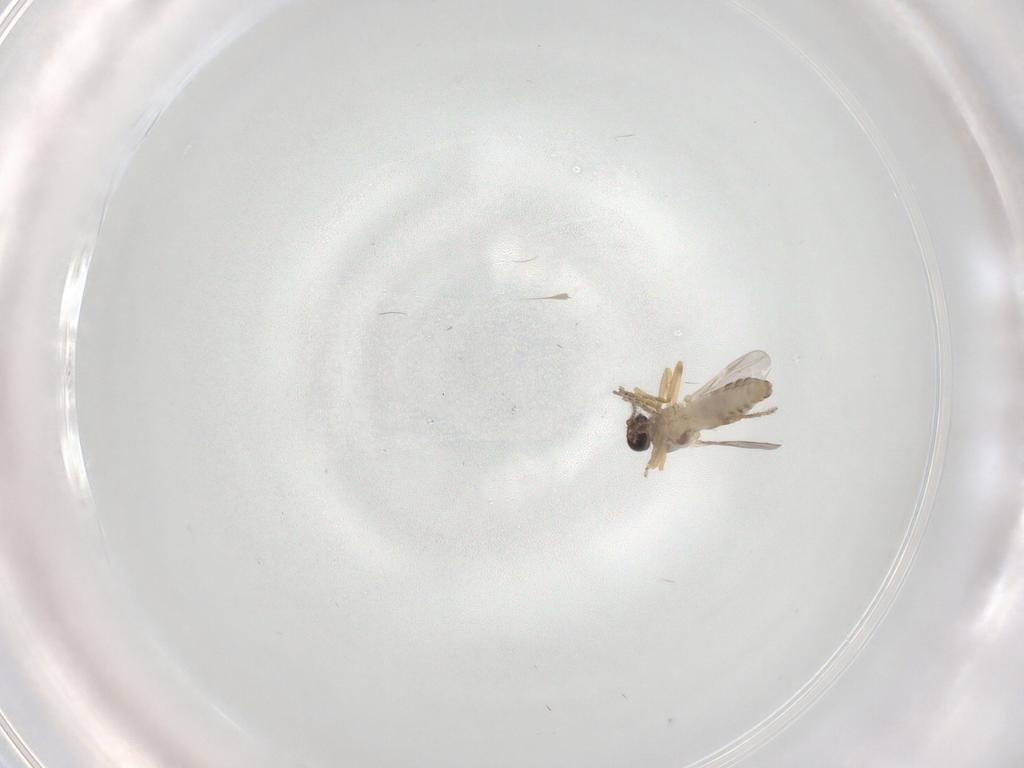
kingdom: Animalia
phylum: Arthropoda
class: Insecta
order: Diptera
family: Ceratopogonidae
